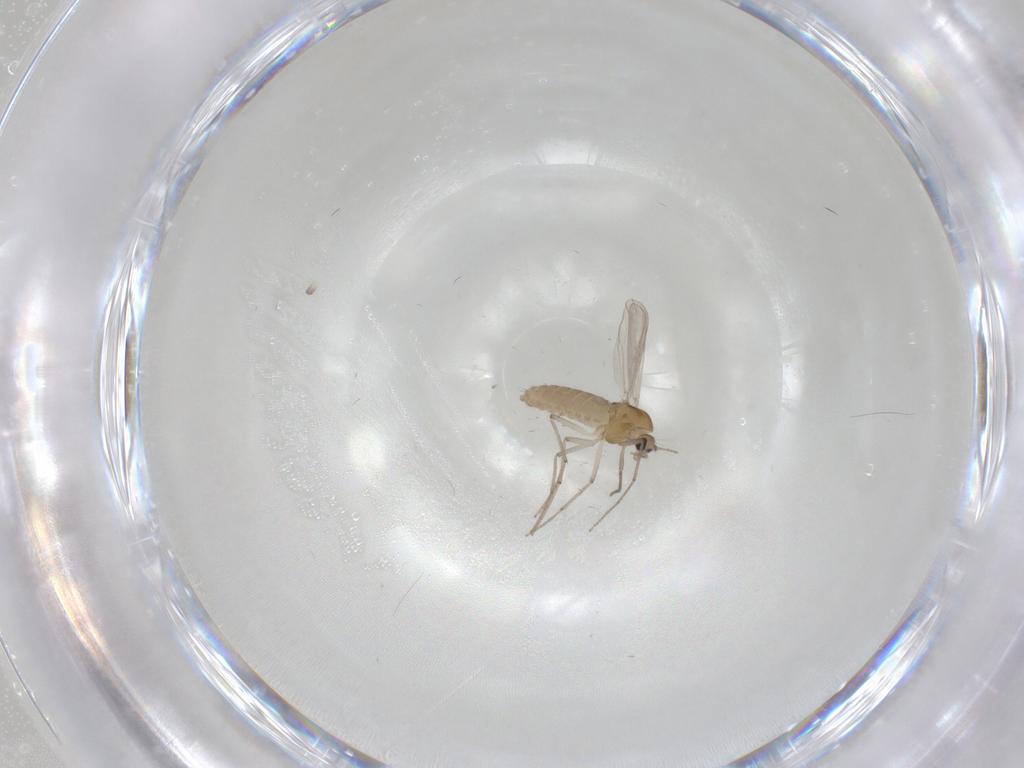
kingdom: Animalia
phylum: Arthropoda
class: Insecta
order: Diptera
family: Chironomidae
